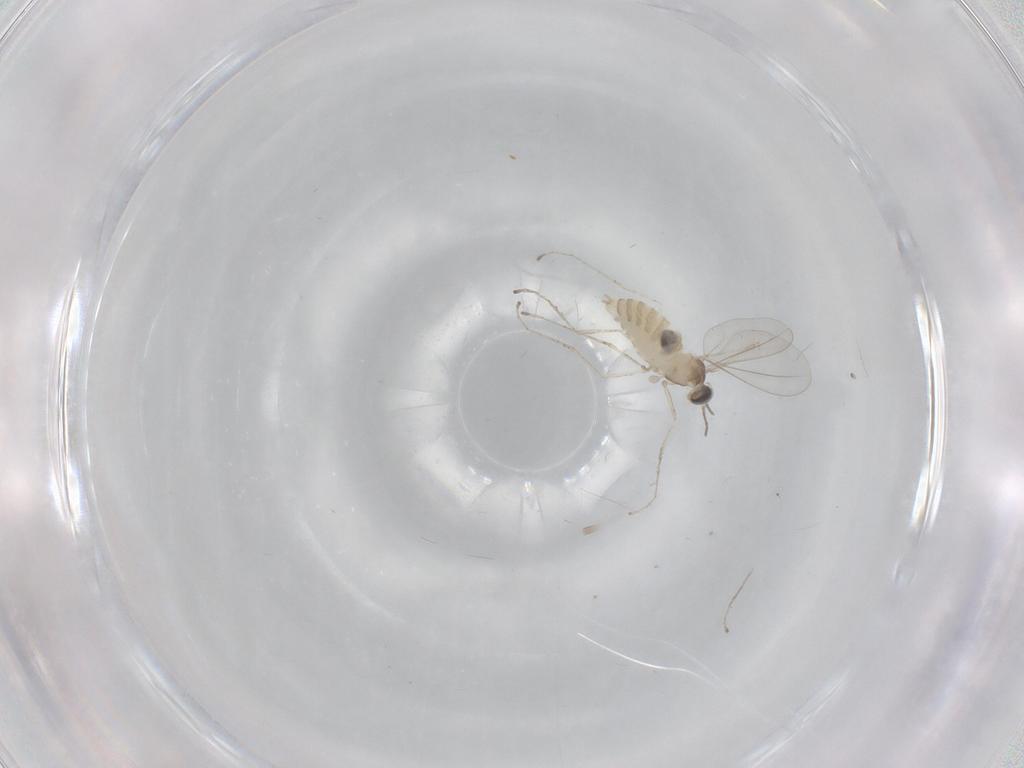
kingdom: Animalia
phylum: Arthropoda
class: Insecta
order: Diptera
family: Cecidomyiidae
